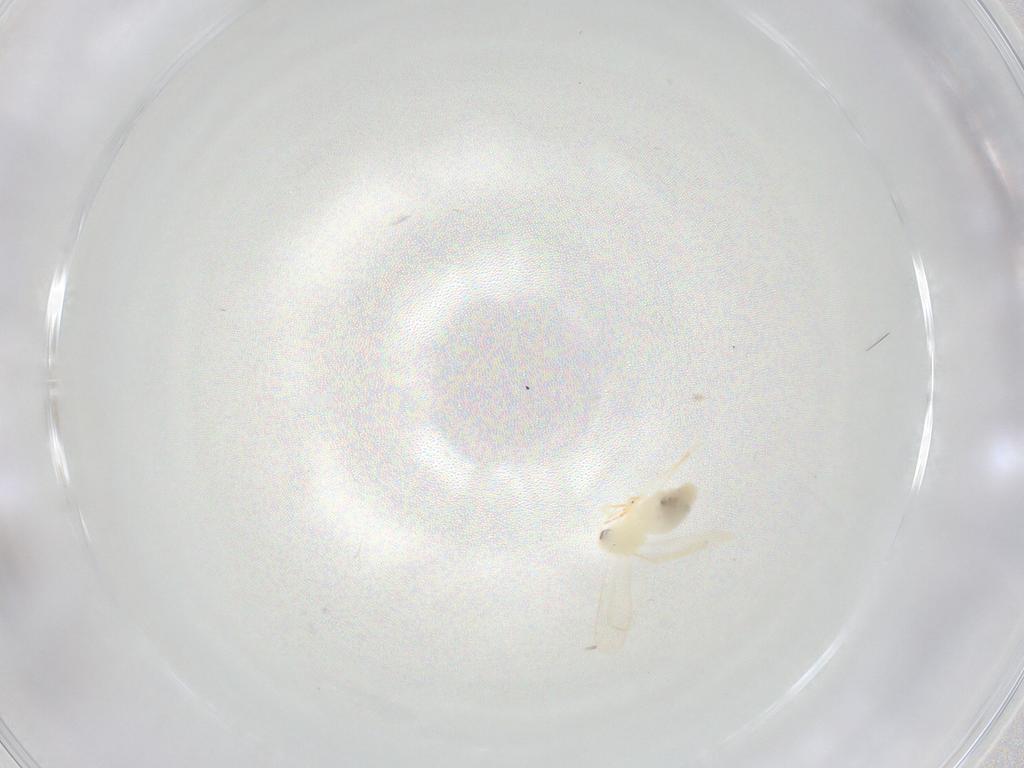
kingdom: Animalia
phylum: Arthropoda
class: Insecta
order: Hemiptera
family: Aleyrodidae
